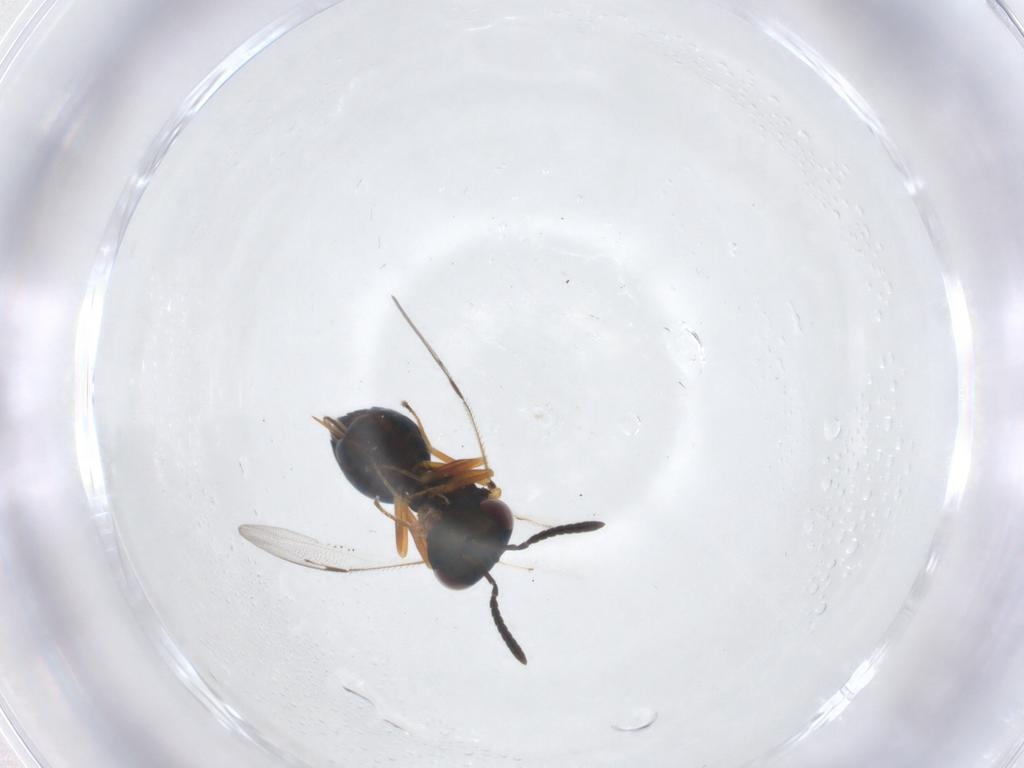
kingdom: Animalia
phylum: Arthropoda
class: Insecta
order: Hymenoptera
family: Pteromalidae
